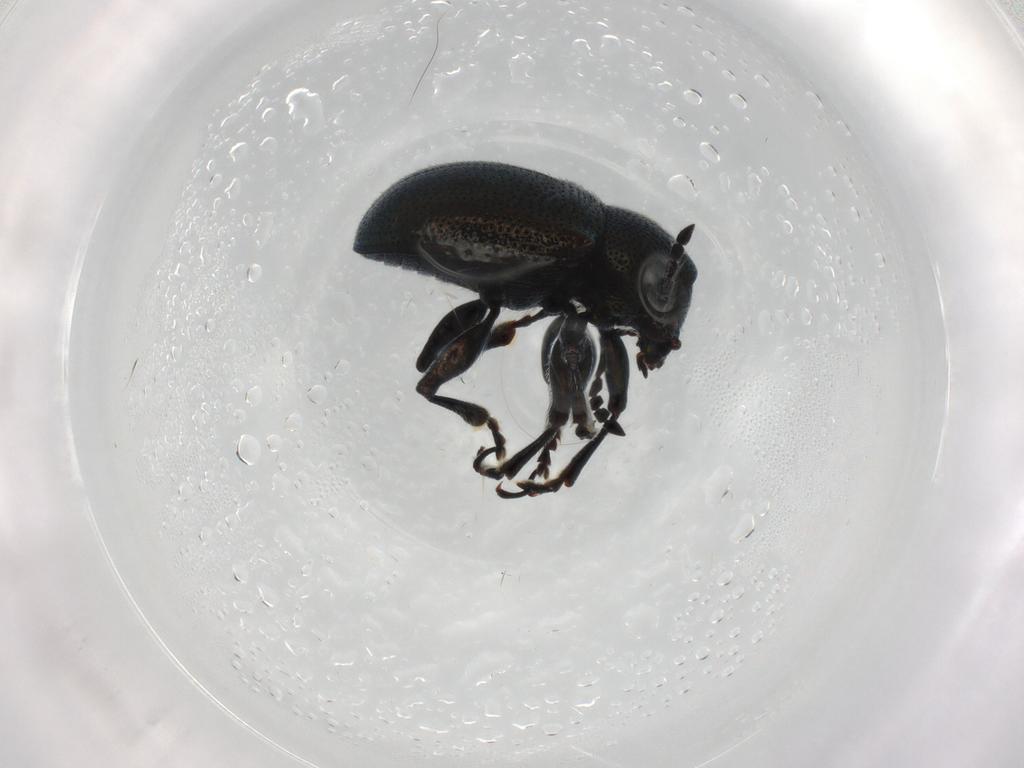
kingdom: Animalia
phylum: Arthropoda
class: Insecta
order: Coleoptera
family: Chrysomelidae
